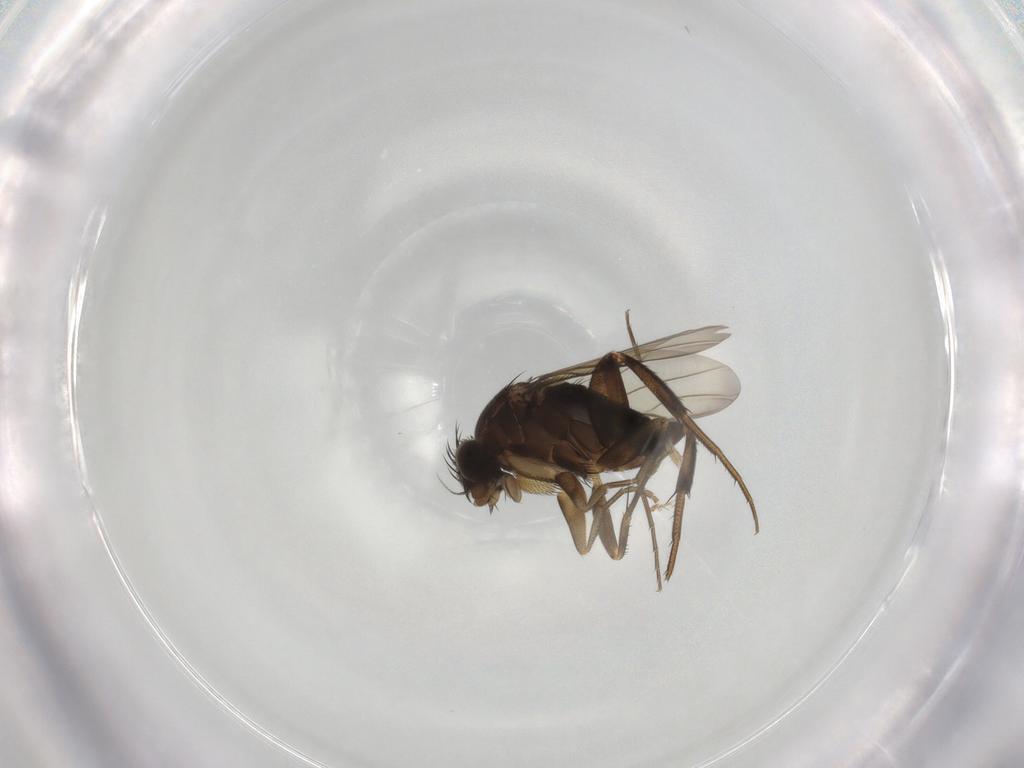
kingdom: Animalia
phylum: Arthropoda
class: Insecta
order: Diptera
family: Phoridae
